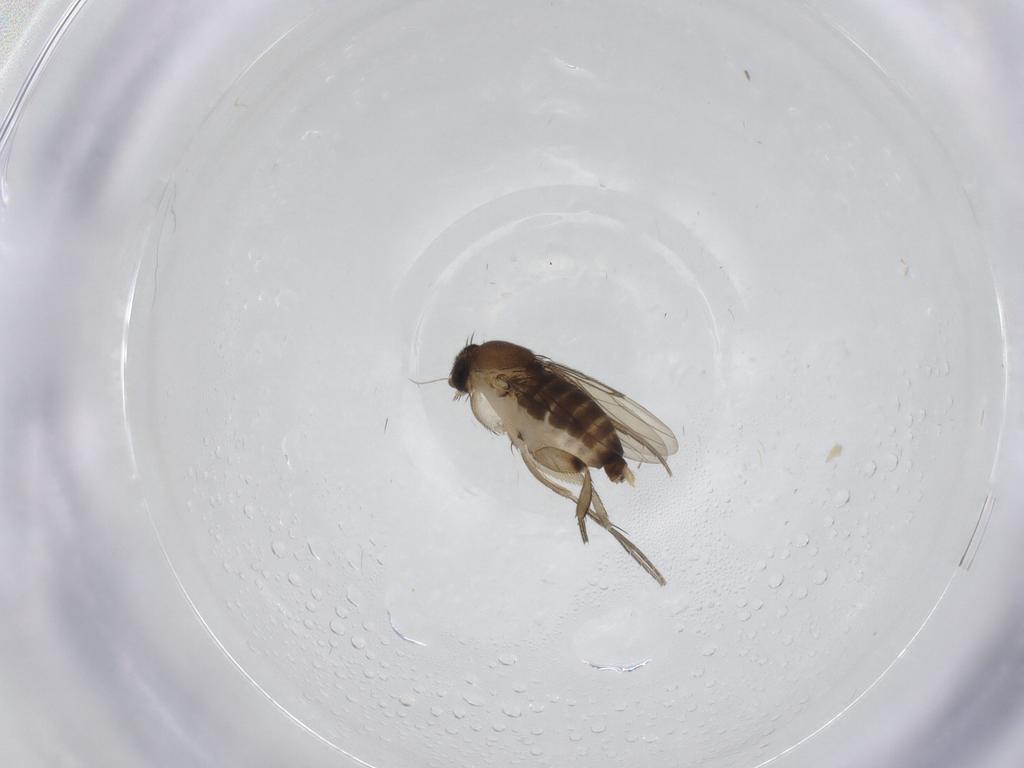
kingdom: Animalia
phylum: Arthropoda
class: Insecta
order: Diptera
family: Phoridae
